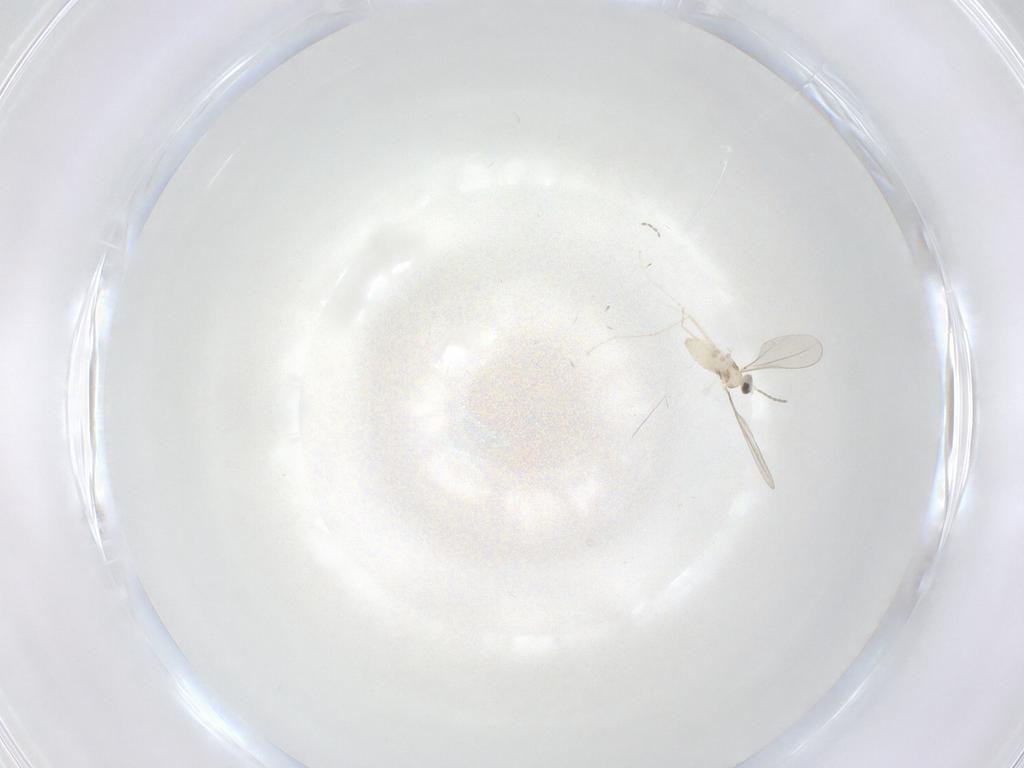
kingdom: Animalia
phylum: Arthropoda
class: Insecta
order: Diptera
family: Cecidomyiidae
